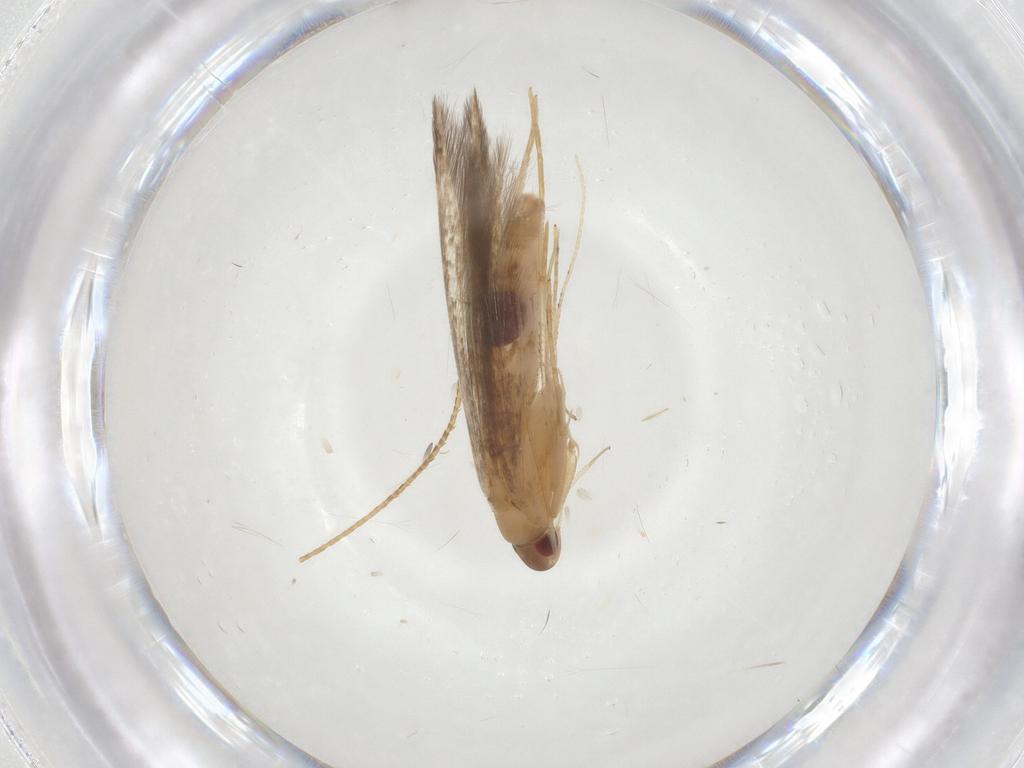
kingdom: Animalia
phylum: Arthropoda
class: Insecta
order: Lepidoptera
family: Cosmopterigidae
